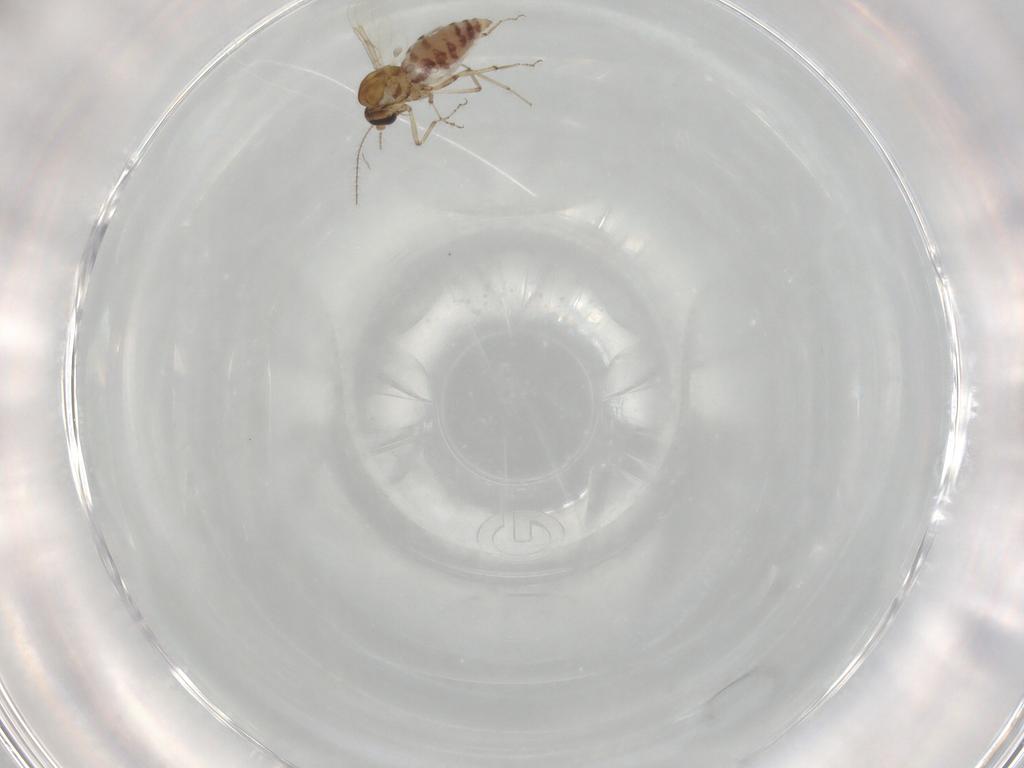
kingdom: Animalia
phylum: Arthropoda
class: Insecta
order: Diptera
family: Ceratopogonidae
